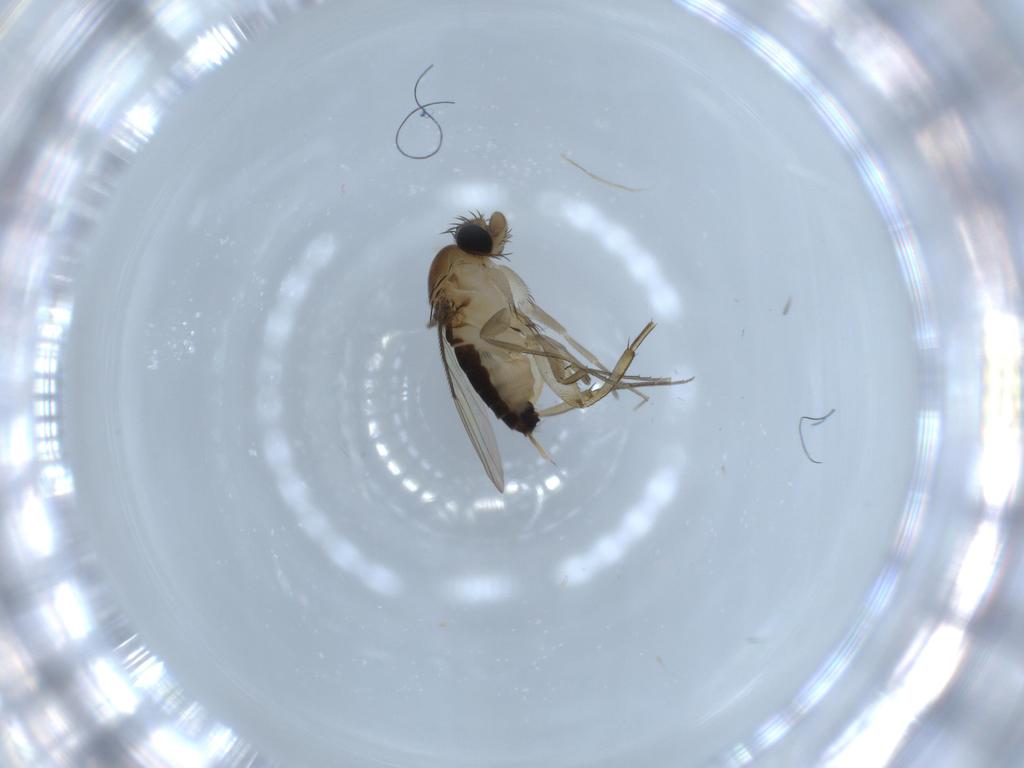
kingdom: Animalia
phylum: Arthropoda
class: Insecta
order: Diptera
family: Phoridae
